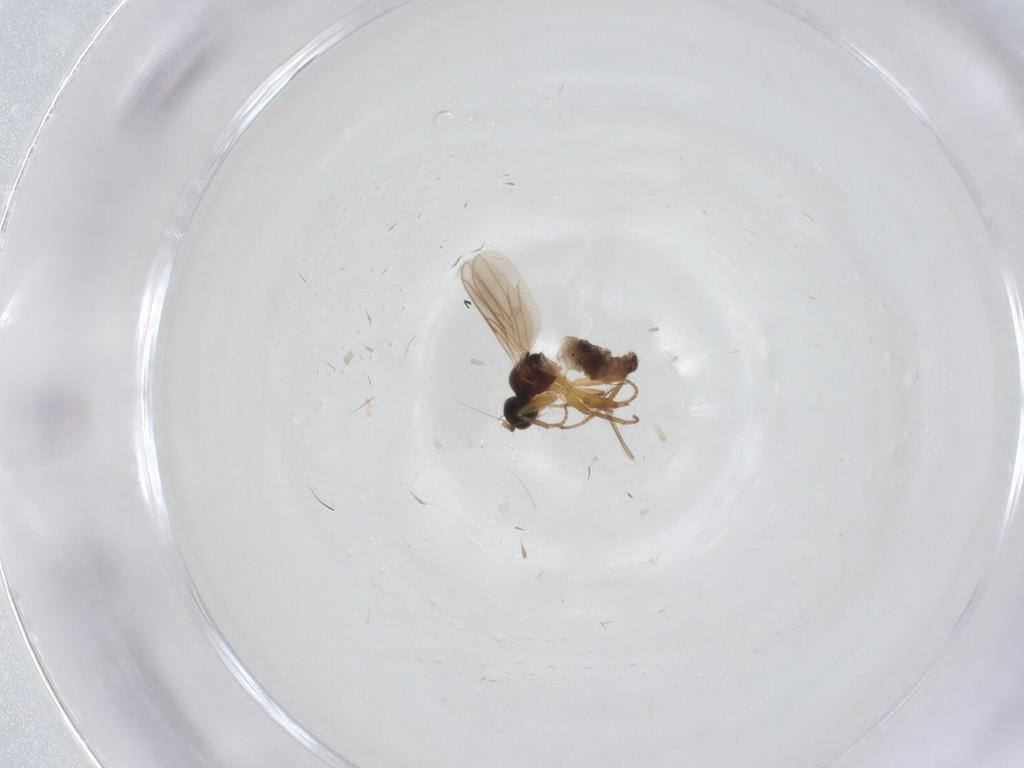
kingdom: Animalia
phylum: Arthropoda
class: Insecta
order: Diptera
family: Hybotidae
